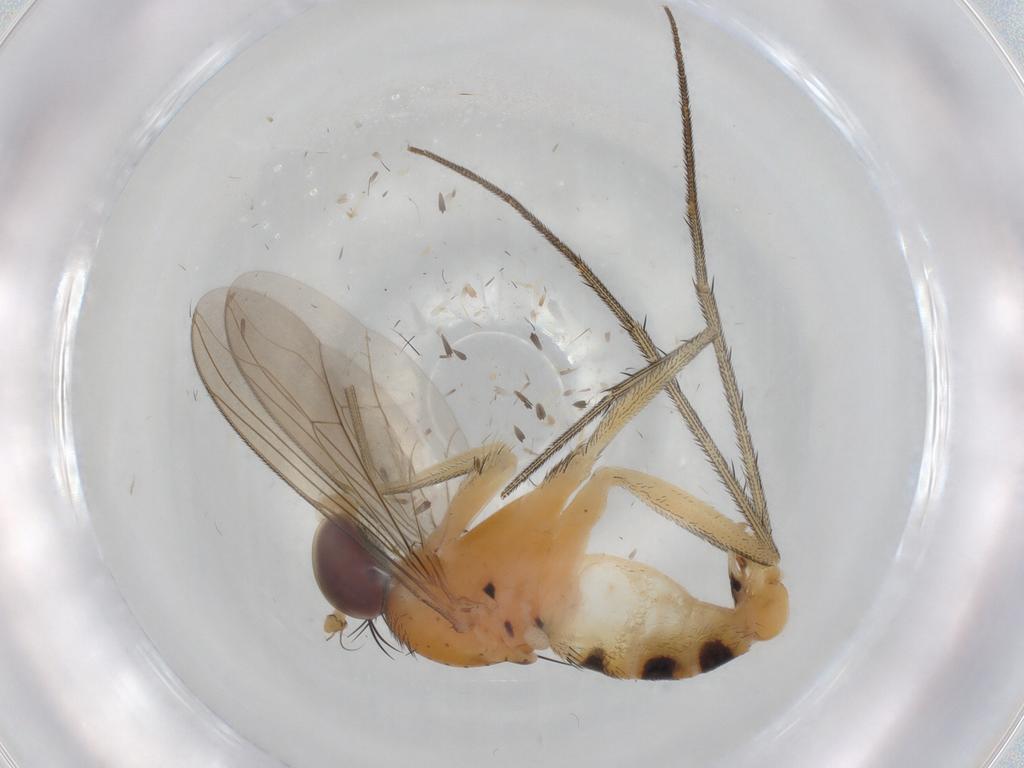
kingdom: Animalia
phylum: Arthropoda
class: Insecta
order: Diptera
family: Dolichopodidae
